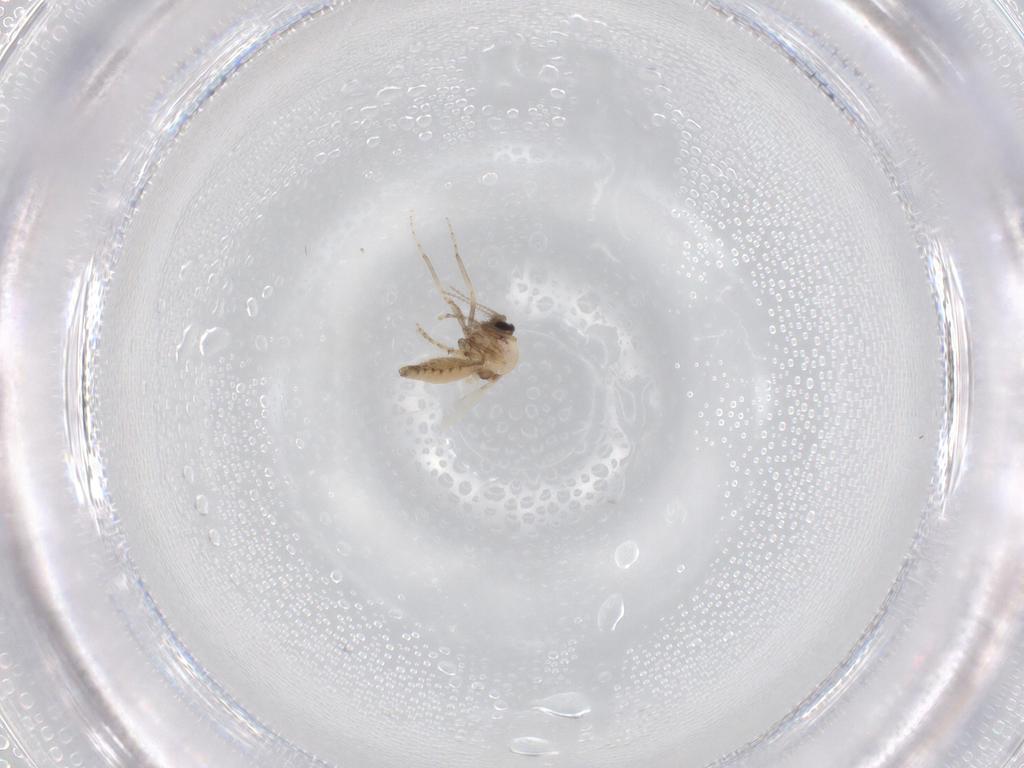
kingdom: Animalia
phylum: Arthropoda
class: Insecta
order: Diptera
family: Ceratopogonidae
